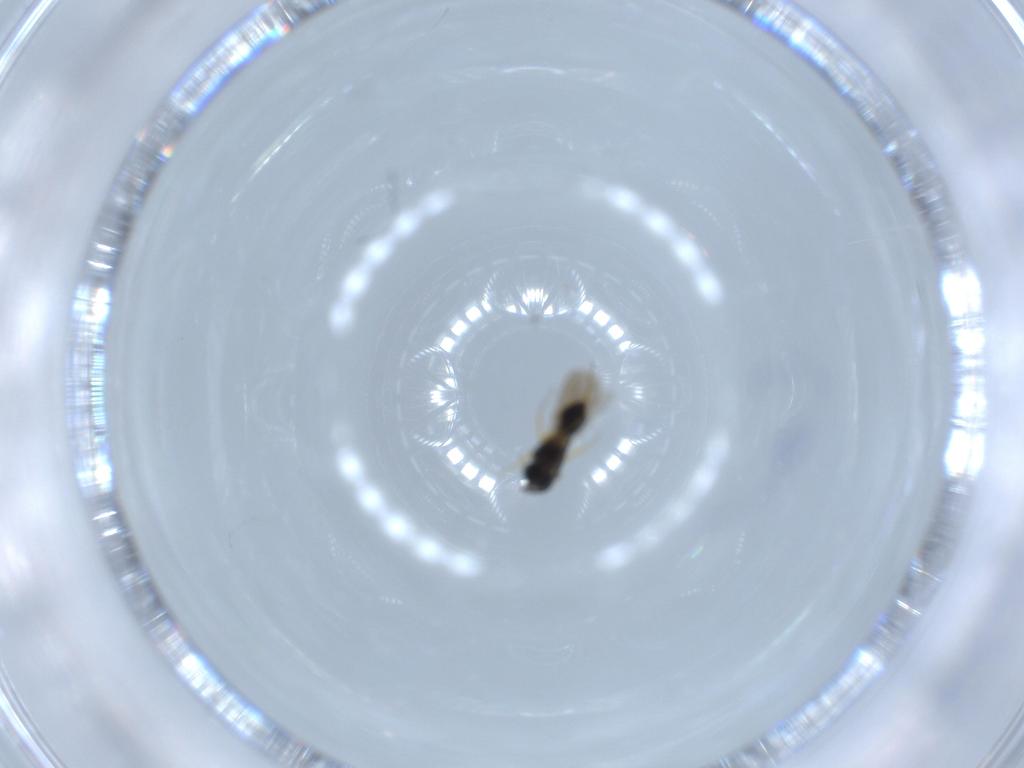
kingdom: Animalia
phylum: Arthropoda
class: Insecta
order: Hymenoptera
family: Scelionidae
